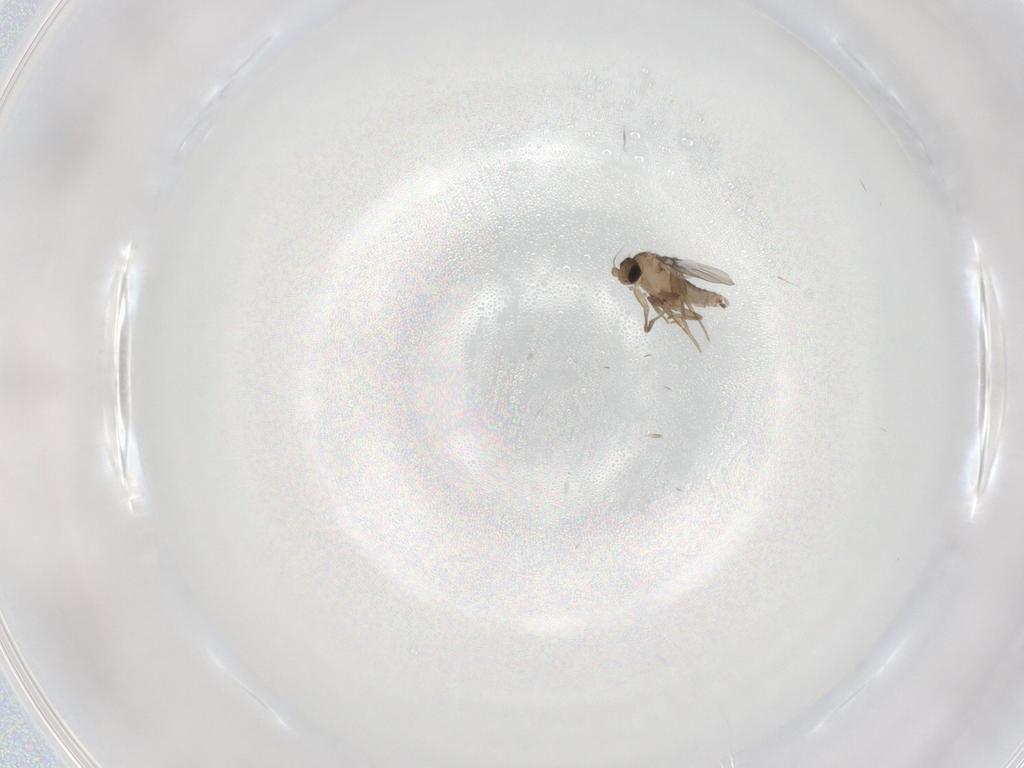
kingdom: Animalia
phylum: Arthropoda
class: Insecta
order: Diptera
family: Psychodidae
